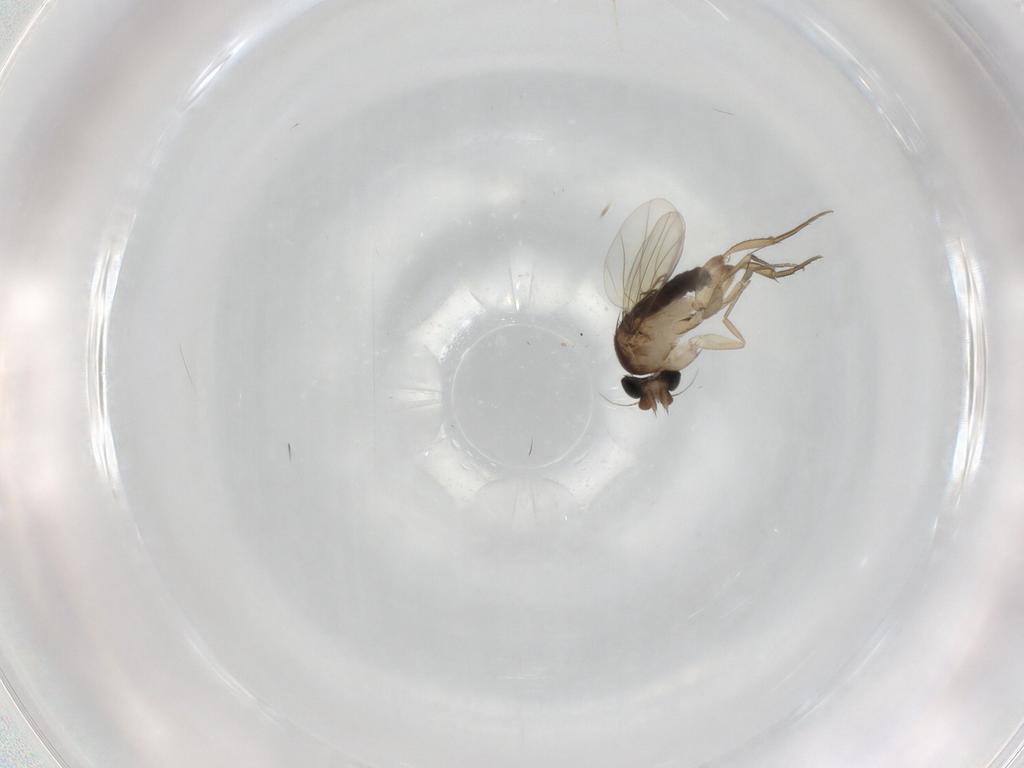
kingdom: Animalia
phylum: Arthropoda
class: Insecta
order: Diptera
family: Phoridae
